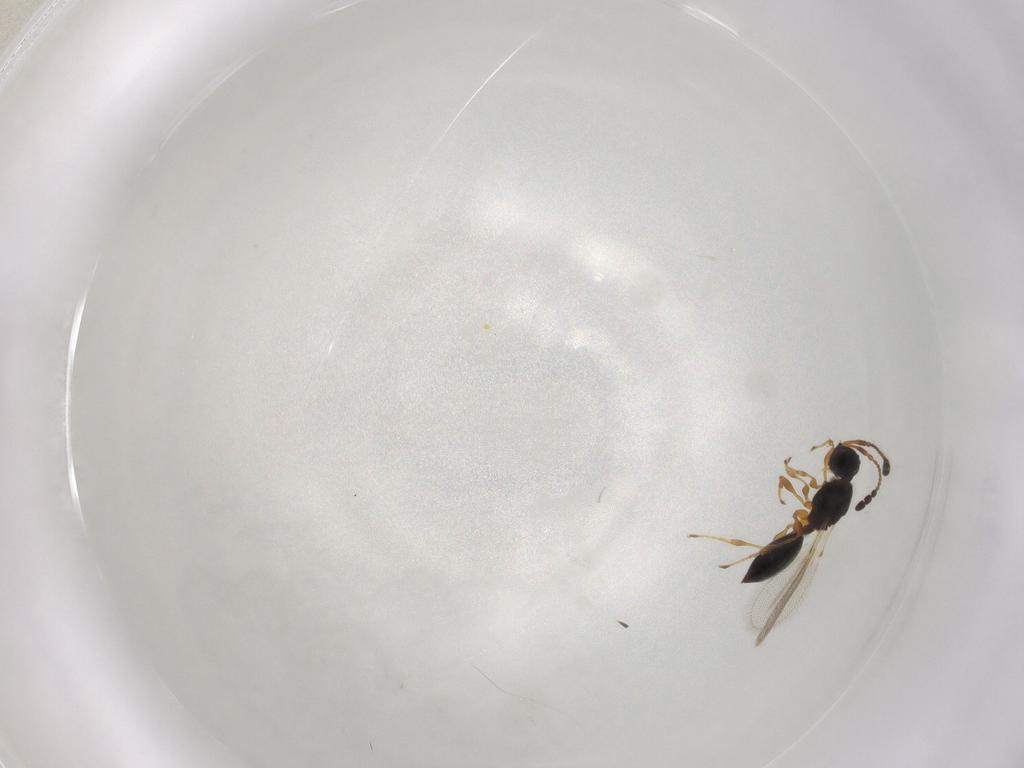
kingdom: Animalia
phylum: Arthropoda
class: Insecta
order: Hymenoptera
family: Diapriidae
